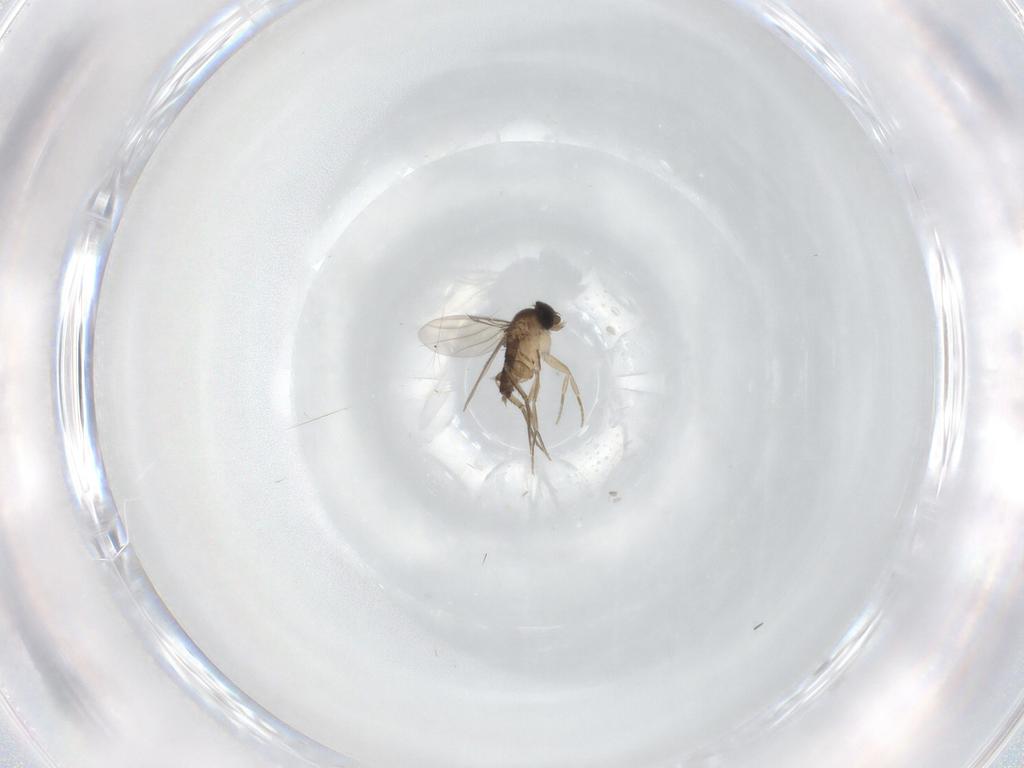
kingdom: Animalia
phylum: Arthropoda
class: Insecta
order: Diptera
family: Phoridae
